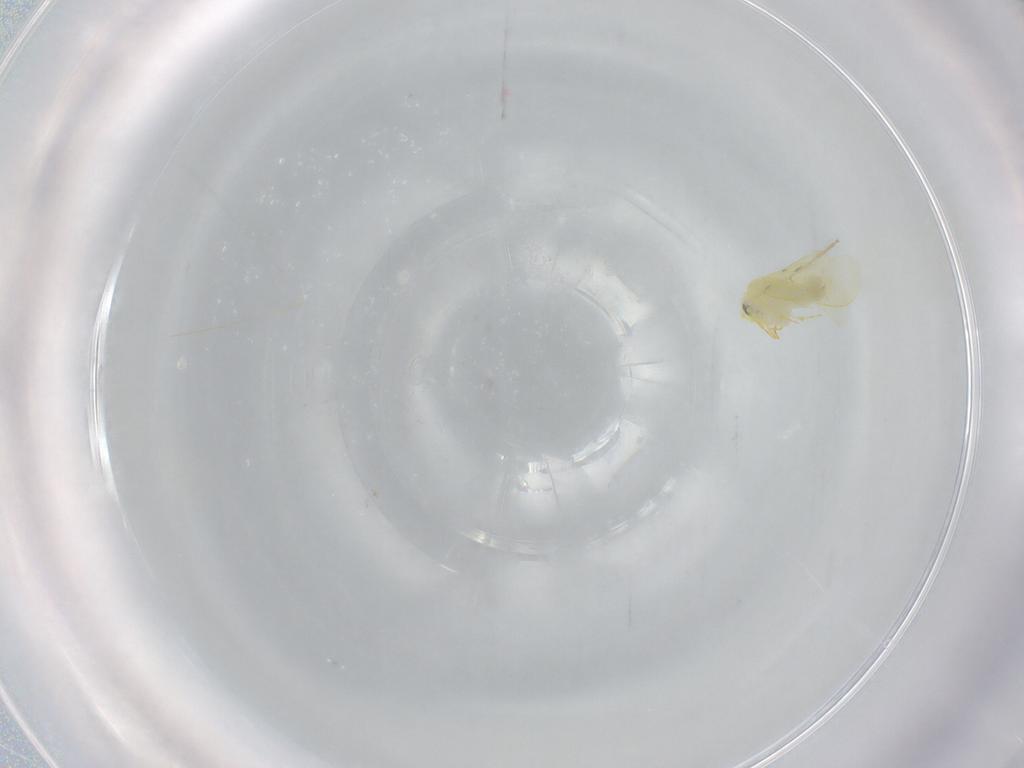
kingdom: Animalia
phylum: Arthropoda
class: Insecta
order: Hemiptera
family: Aleyrodidae
